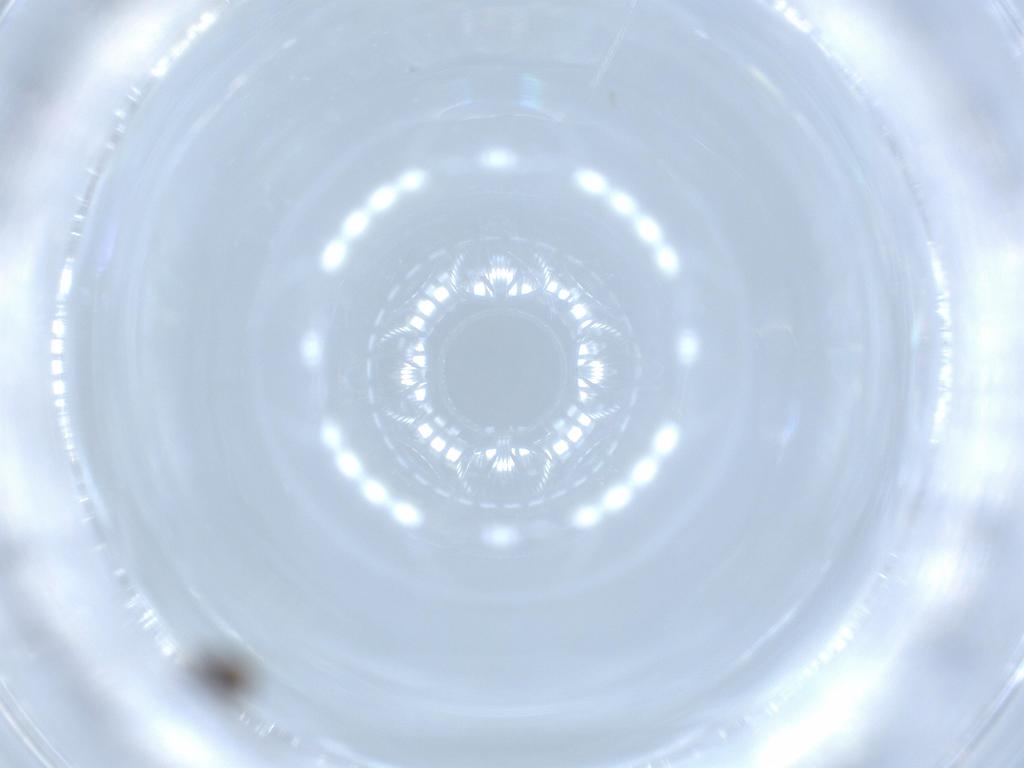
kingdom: Animalia
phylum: Arthropoda
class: Insecta
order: Diptera
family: Cecidomyiidae
